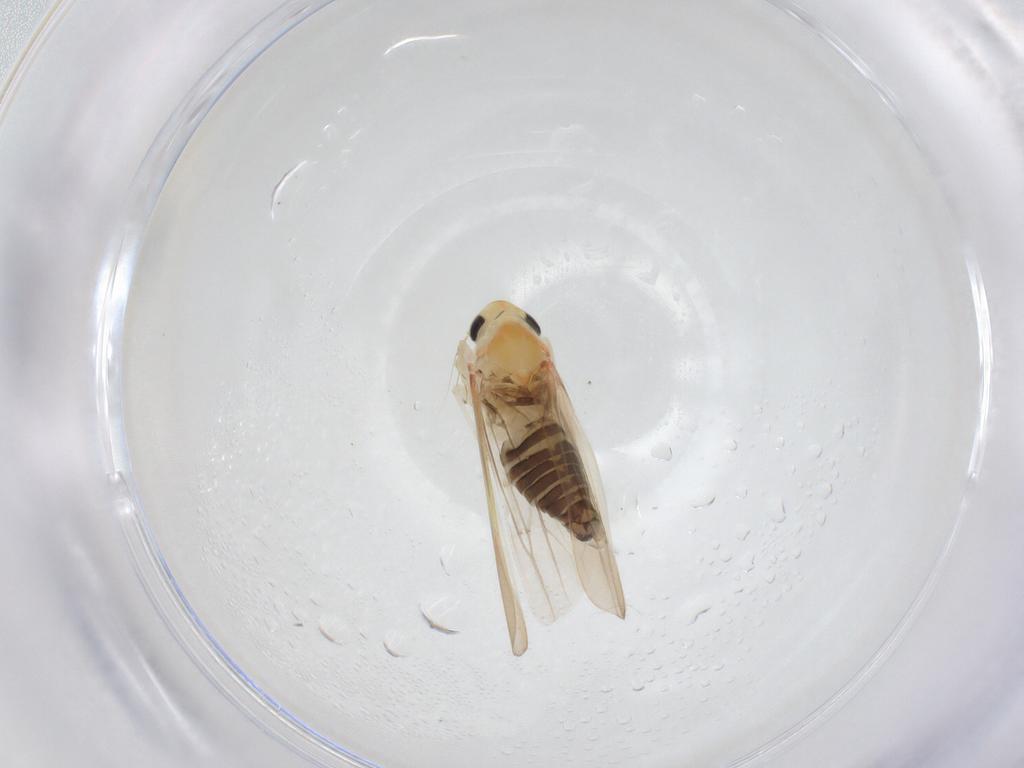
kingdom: Animalia
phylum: Arthropoda
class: Insecta
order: Hemiptera
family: Cicadellidae
